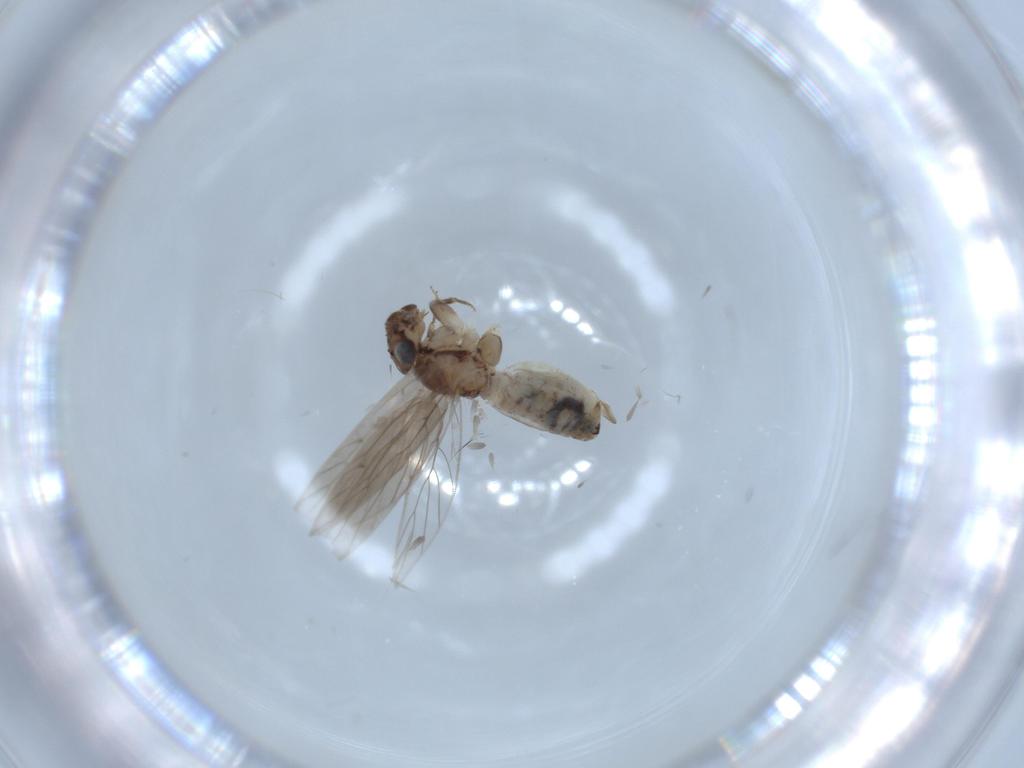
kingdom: Animalia
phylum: Arthropoda
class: Insecta
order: Psocodea
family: Lepidopsocidae
